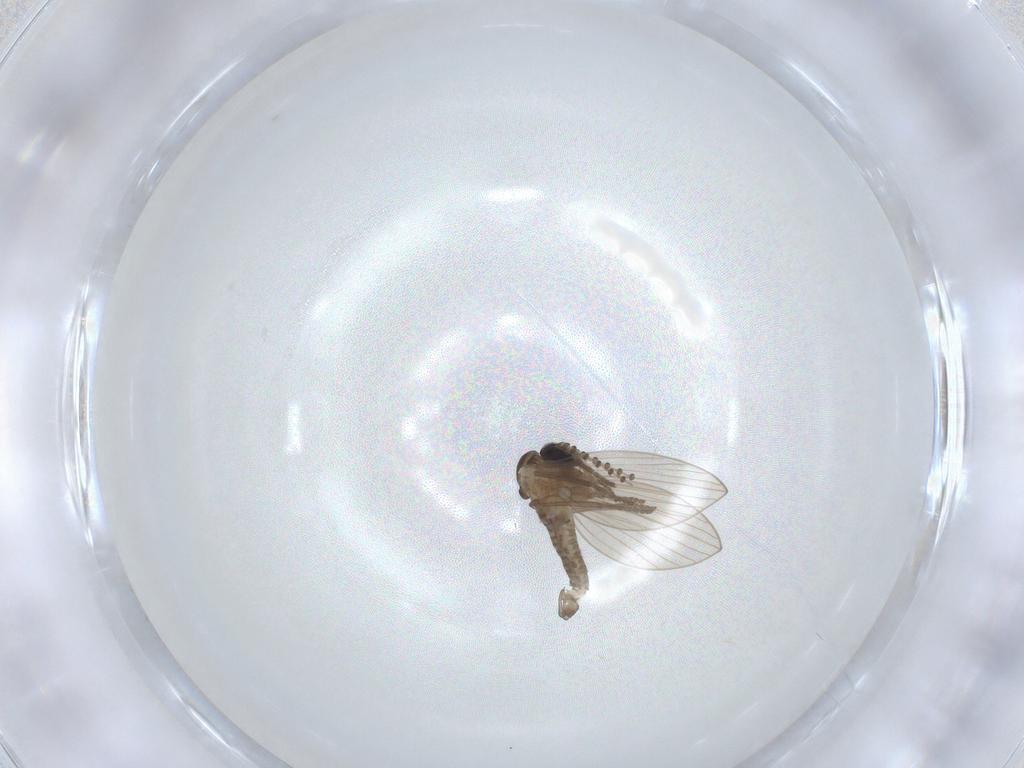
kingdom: Animalia
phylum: Arthropoda
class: Insecta
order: Diptera
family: Psychodidae
